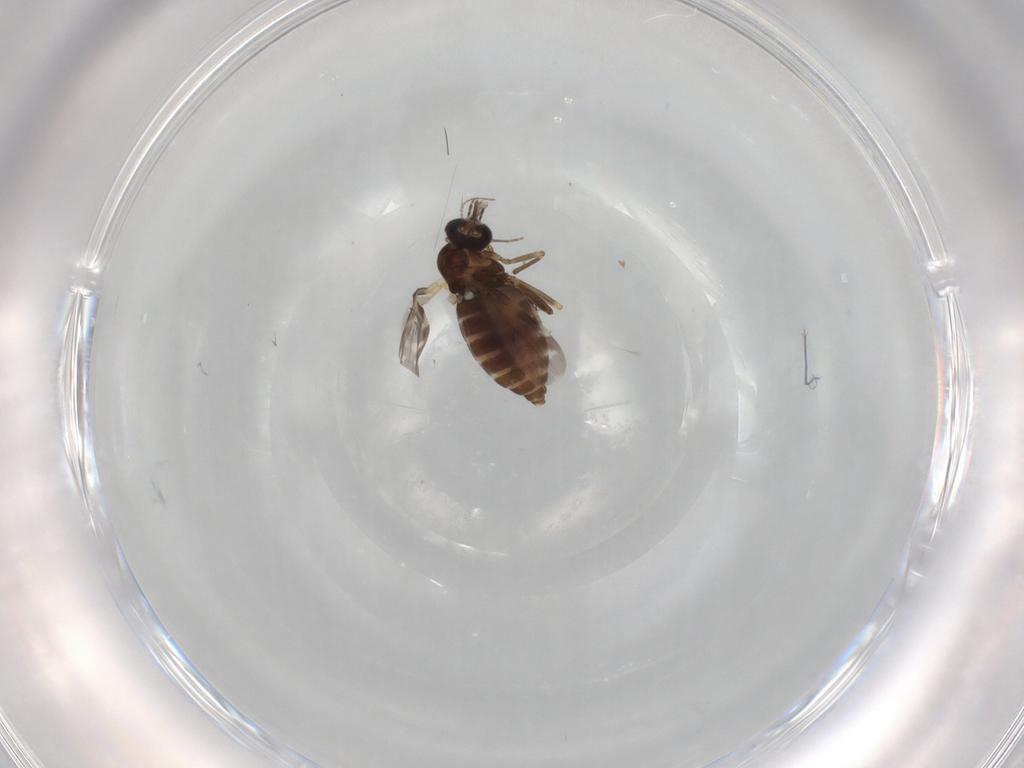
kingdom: Animalia
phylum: Arthropoda
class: Insecta
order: Diptera
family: Ceratopogonidae
